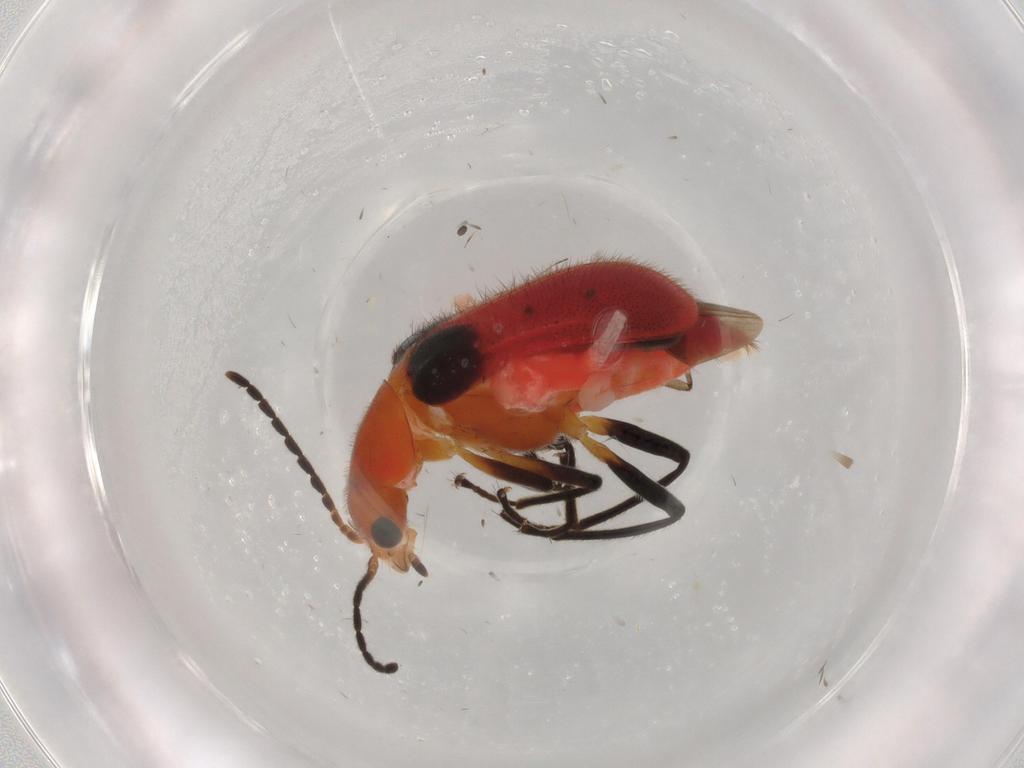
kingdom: Animalia
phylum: Arthropoda
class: Insecta
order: Coleoptera
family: Melyridae
